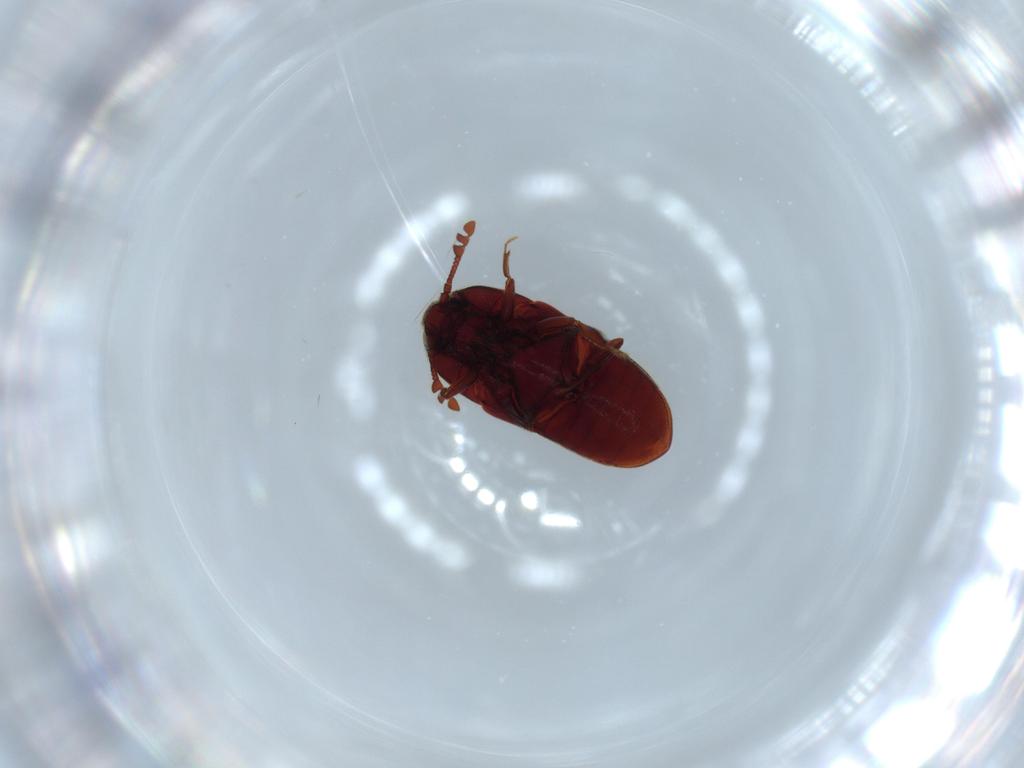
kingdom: Animalia
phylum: Arthropoda
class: Insecta
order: Coleoptera
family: Throscidae
